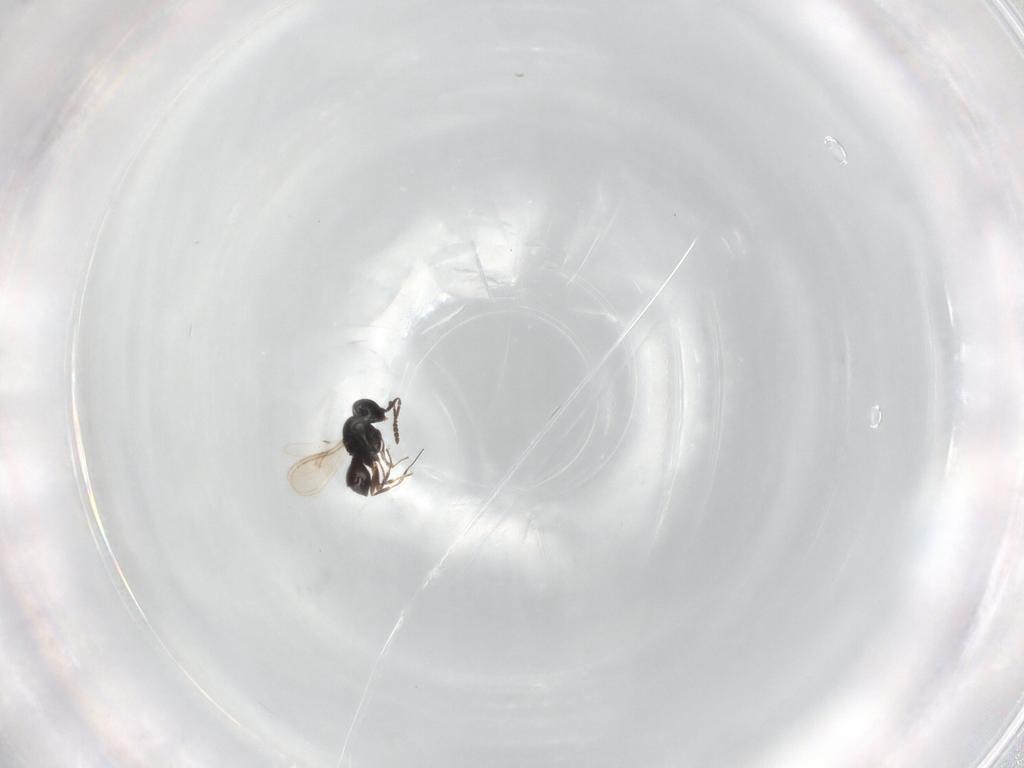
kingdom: Animalia
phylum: Arthropoda
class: Insecta
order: Hymenoptera
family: Scelionidae
